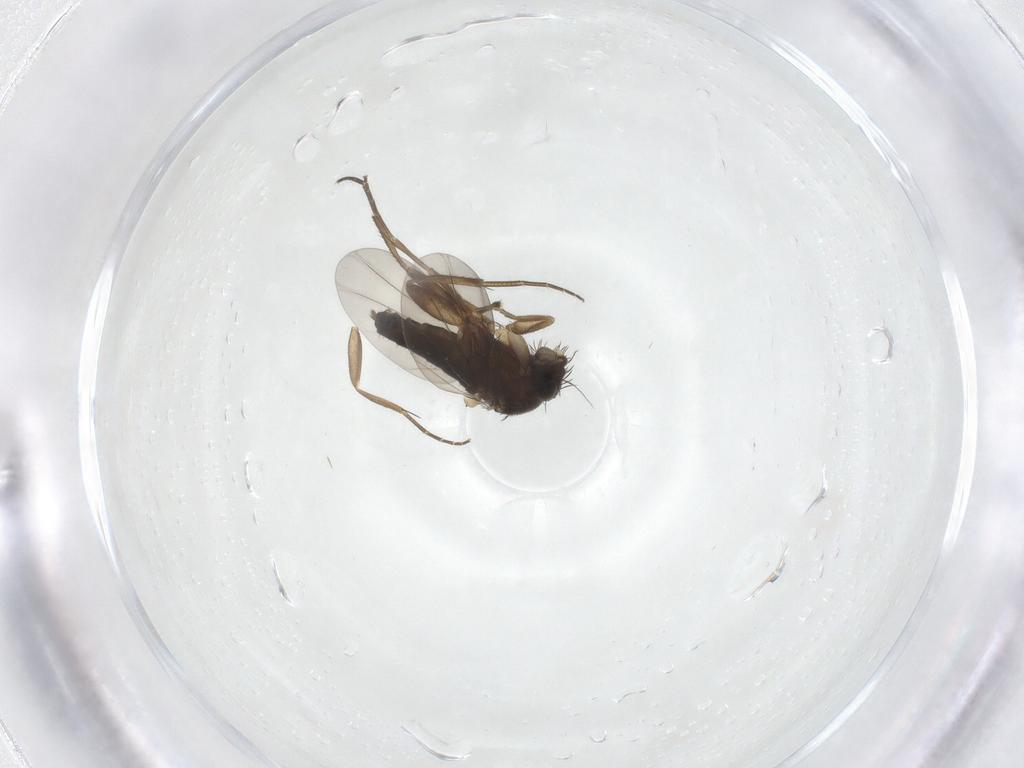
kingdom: Animalia
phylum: Arthropoda
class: Insecta
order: Diptera
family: Phoridae
